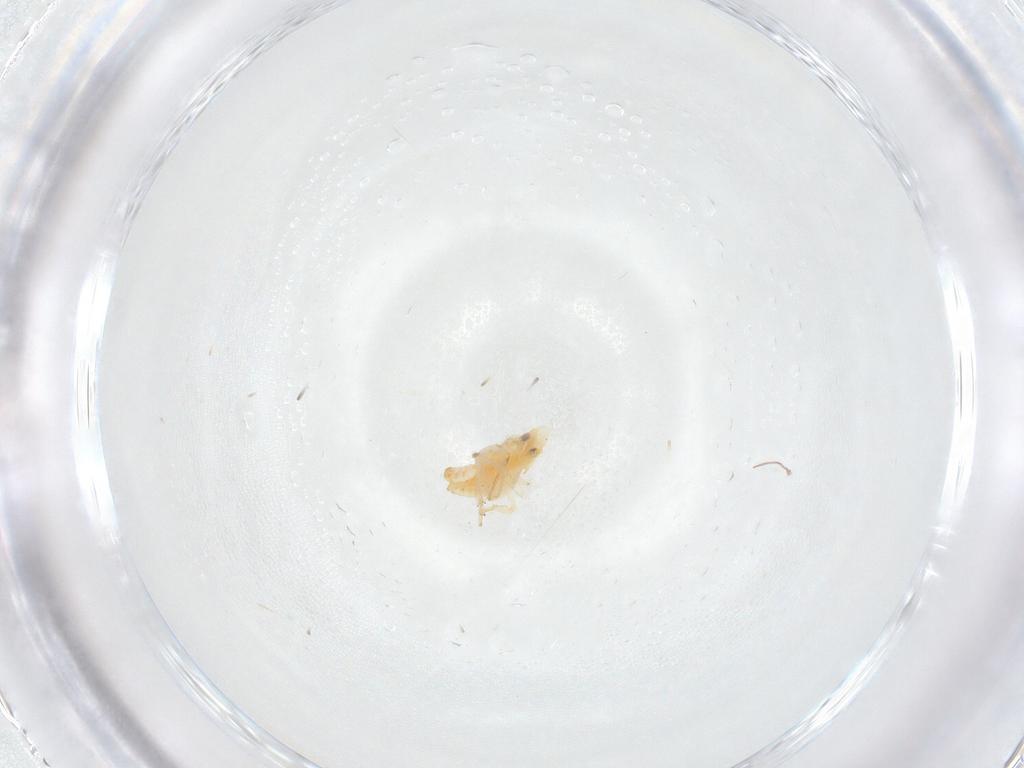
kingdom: Animalia
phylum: Arthropoda
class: Insecta
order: Hemiptera
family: Flatidae
